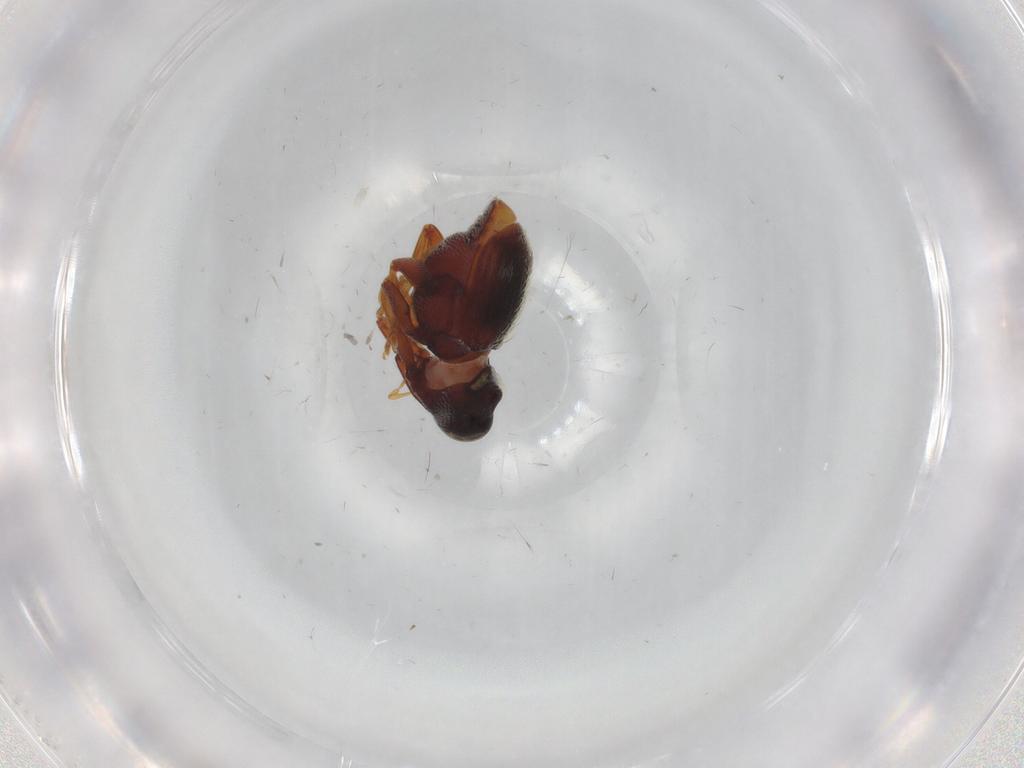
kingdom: Animalia
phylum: Arthropoda
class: Insecta
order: Coleoptera
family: Curculionidae
